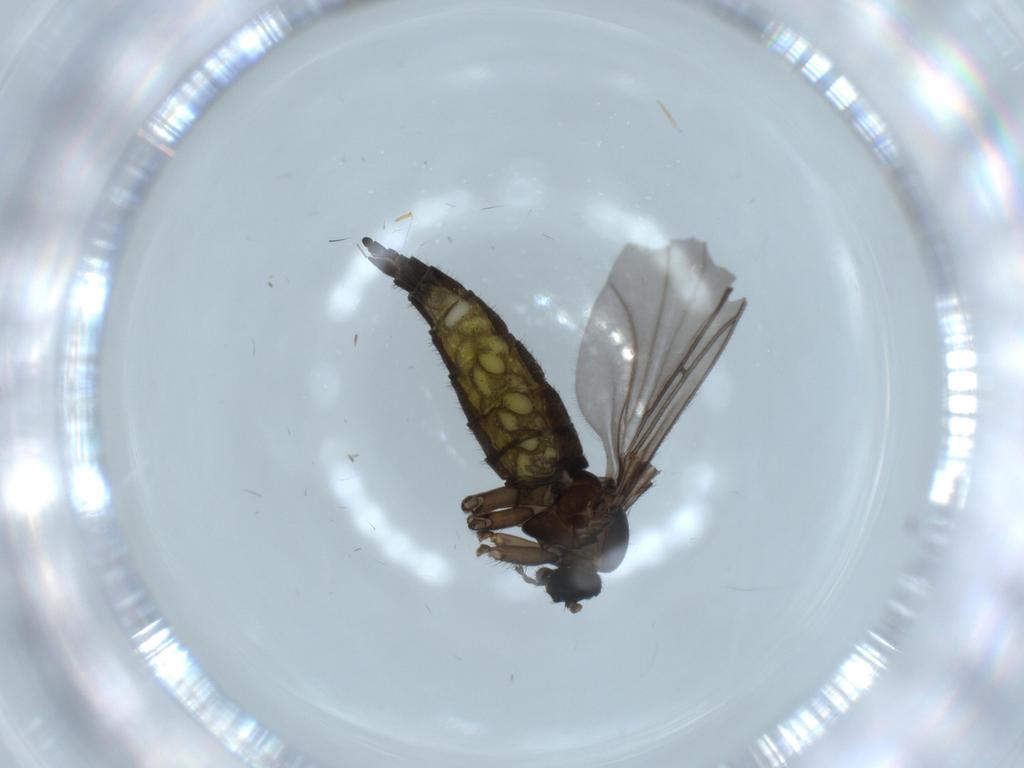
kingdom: Animalia
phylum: Arthropoda
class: Insecta
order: Diptera
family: Sciaridae
